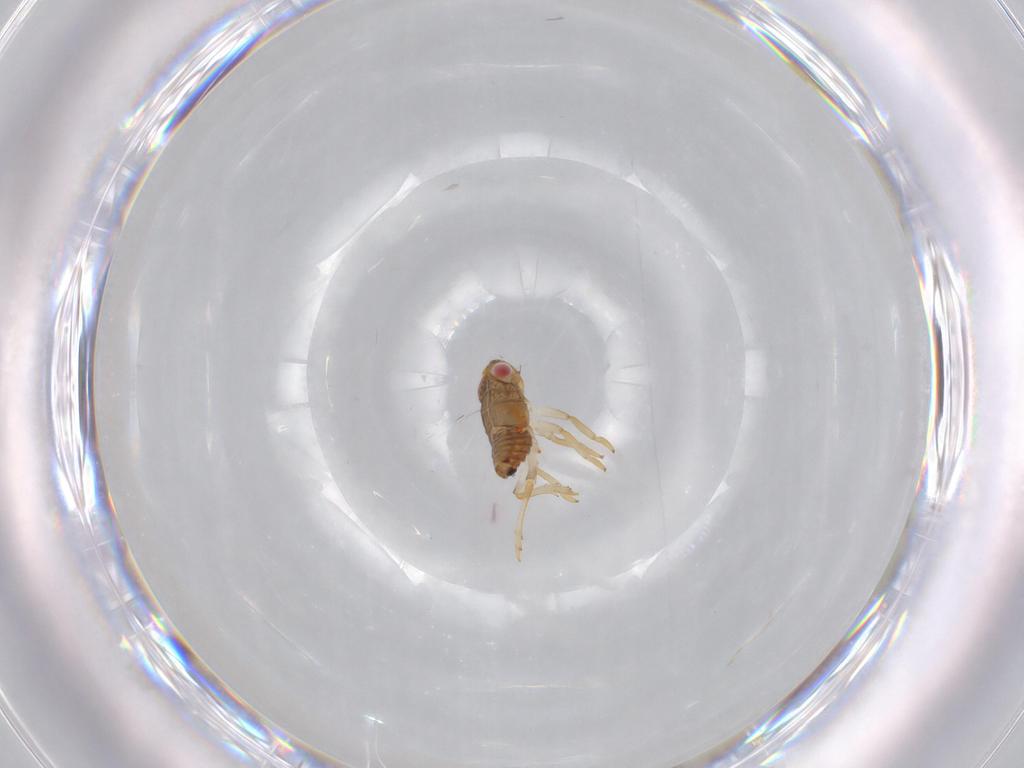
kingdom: Animalia
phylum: Arthropoda
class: Insecta
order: Hemiptera
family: Issidae
